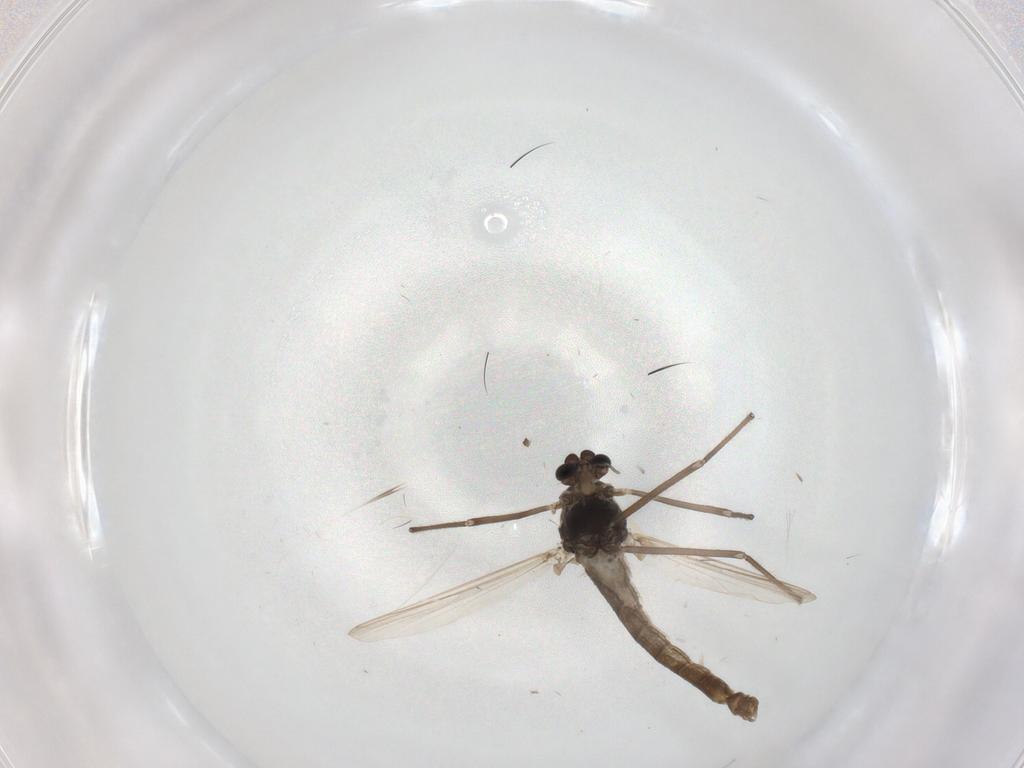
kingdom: Animalia
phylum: Arthropoda
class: Insecta
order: Diptera
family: Chironomidae
